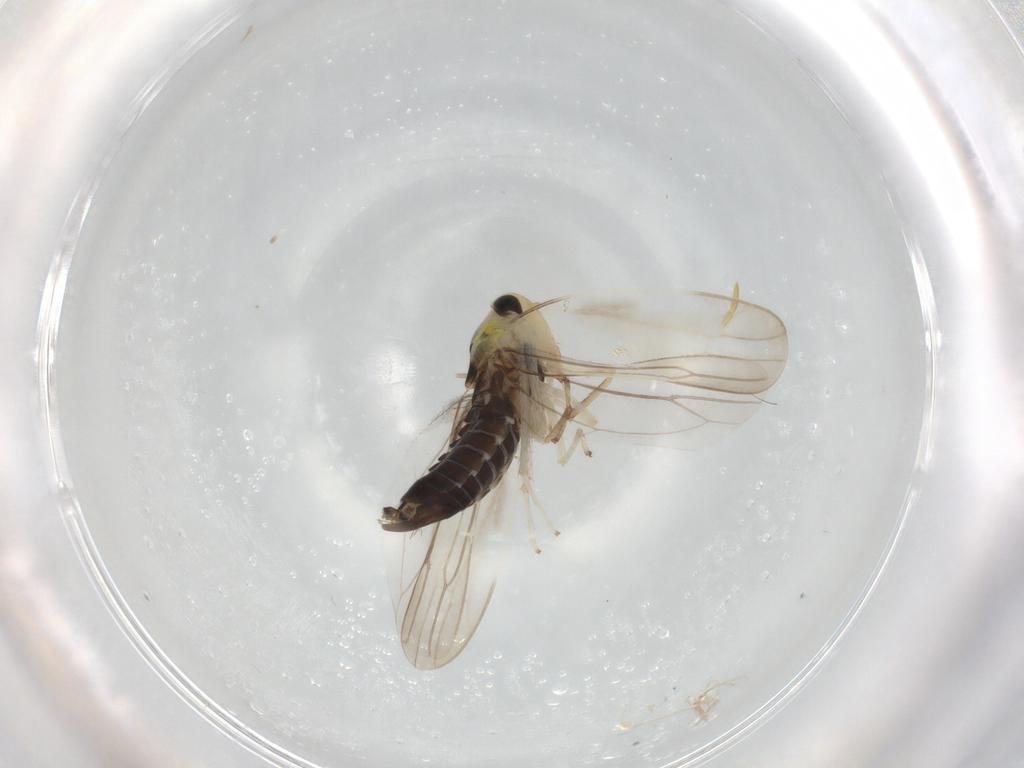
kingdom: Animalia
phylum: Arthropoda
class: Insecta
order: Hemiptera
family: Cicadellidae
